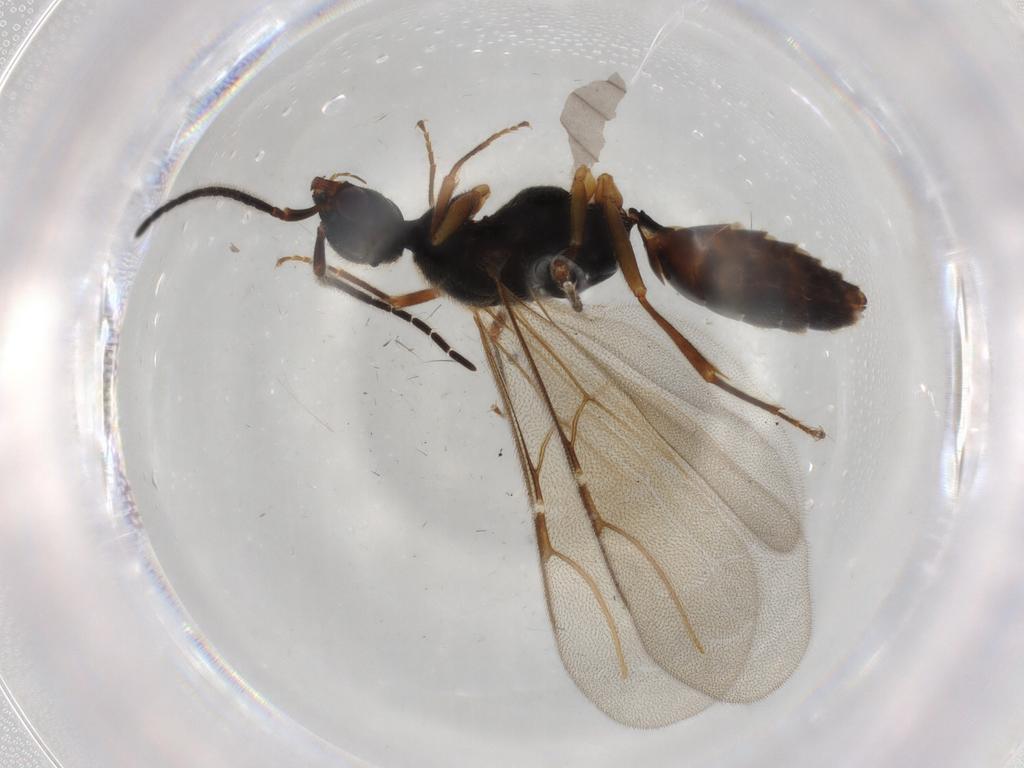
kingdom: Animalia
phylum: Arthropoda
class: Insecta
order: Hymenoptera
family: Bethylidae
